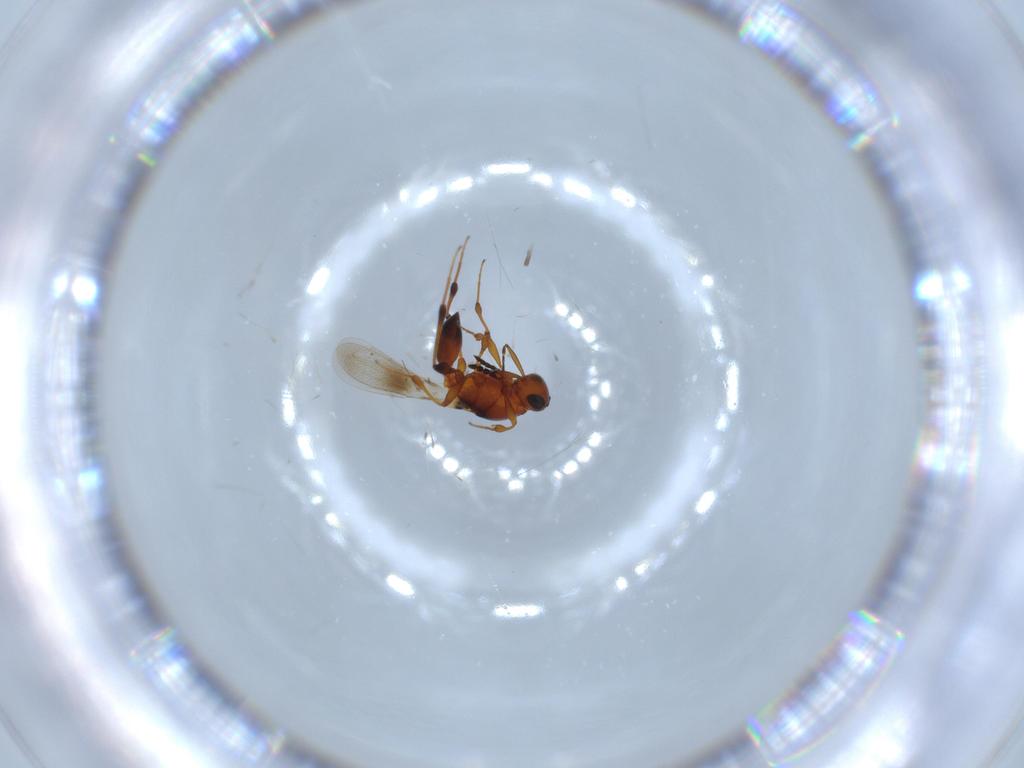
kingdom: Animalia
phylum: Arthropoda
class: Insecta
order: Hymenoptera
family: Platygastridae
